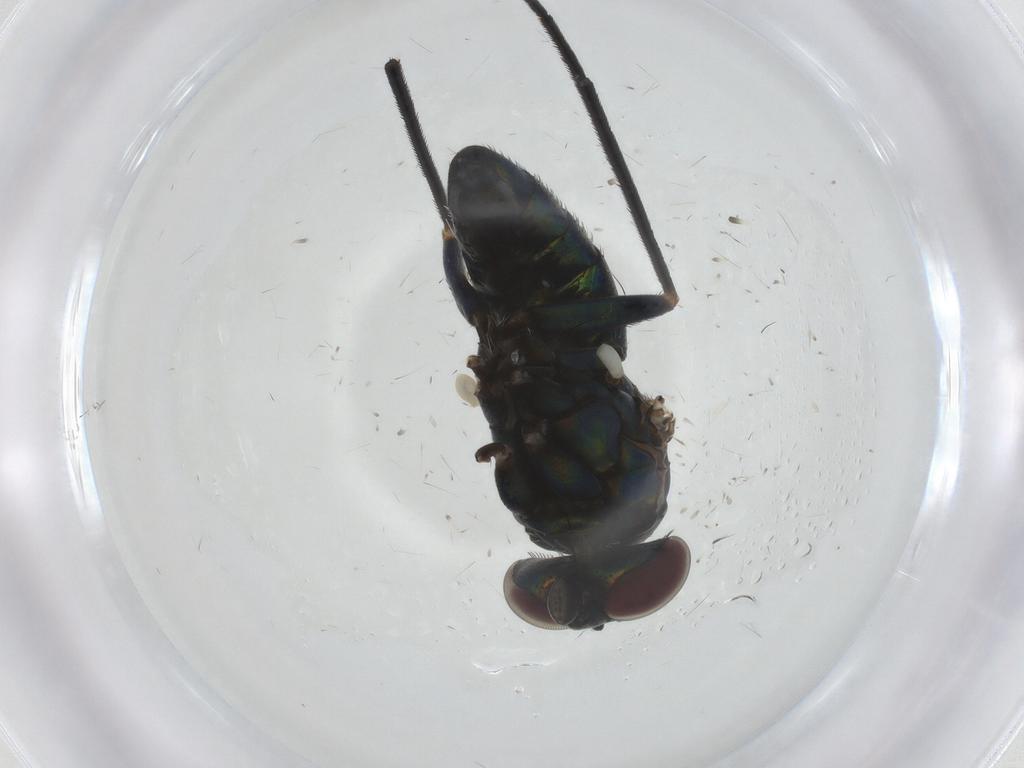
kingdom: Animalia
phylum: Arthropoda
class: Insecta
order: Diptera
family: Dolichopodidae
